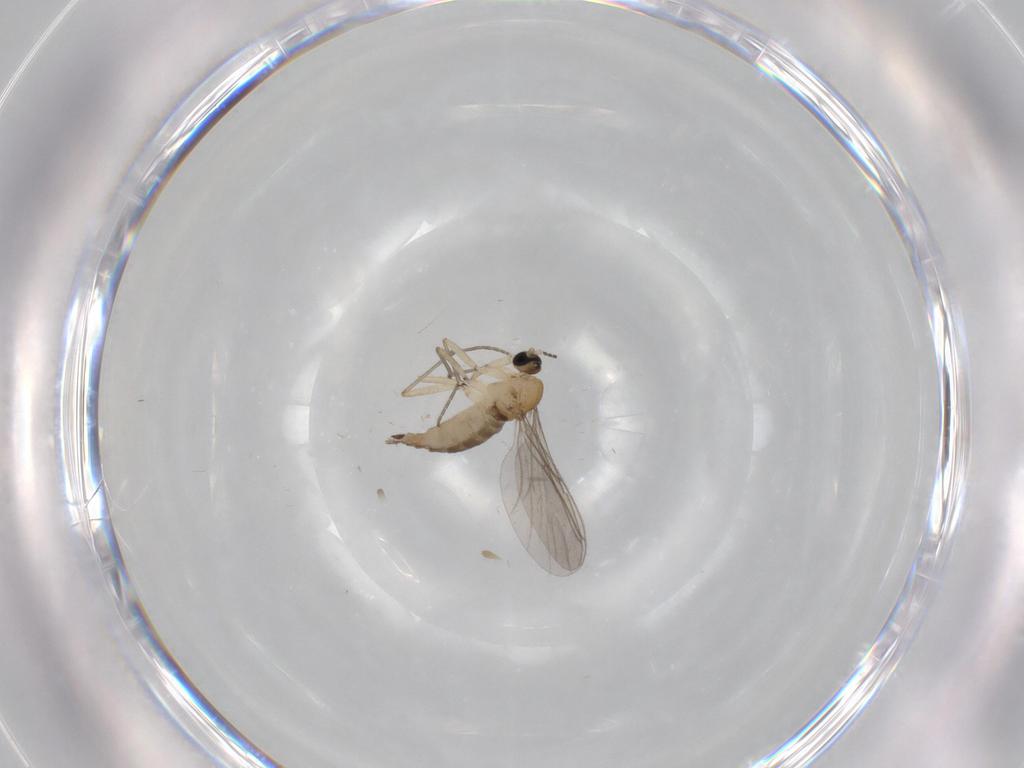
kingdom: Animalia
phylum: Arthropoda
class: Insecta
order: Diptera
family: Sciaridae
